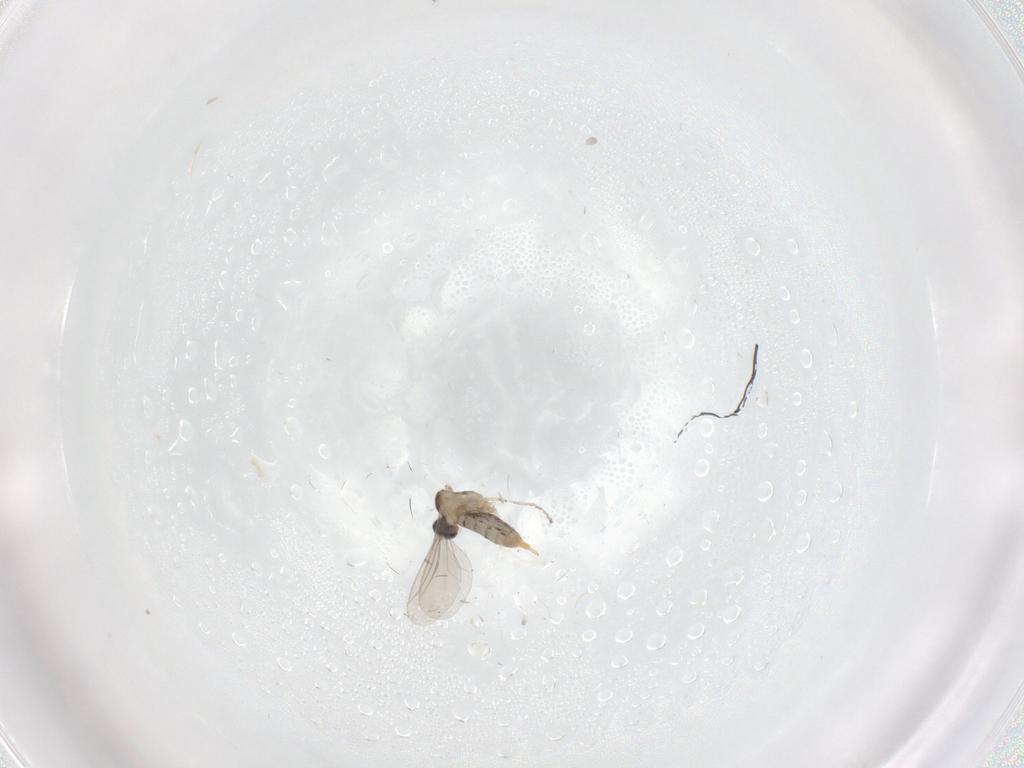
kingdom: Animalia
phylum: Arthropoda
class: Insecta
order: Diptera
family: Cecidomyiidae
